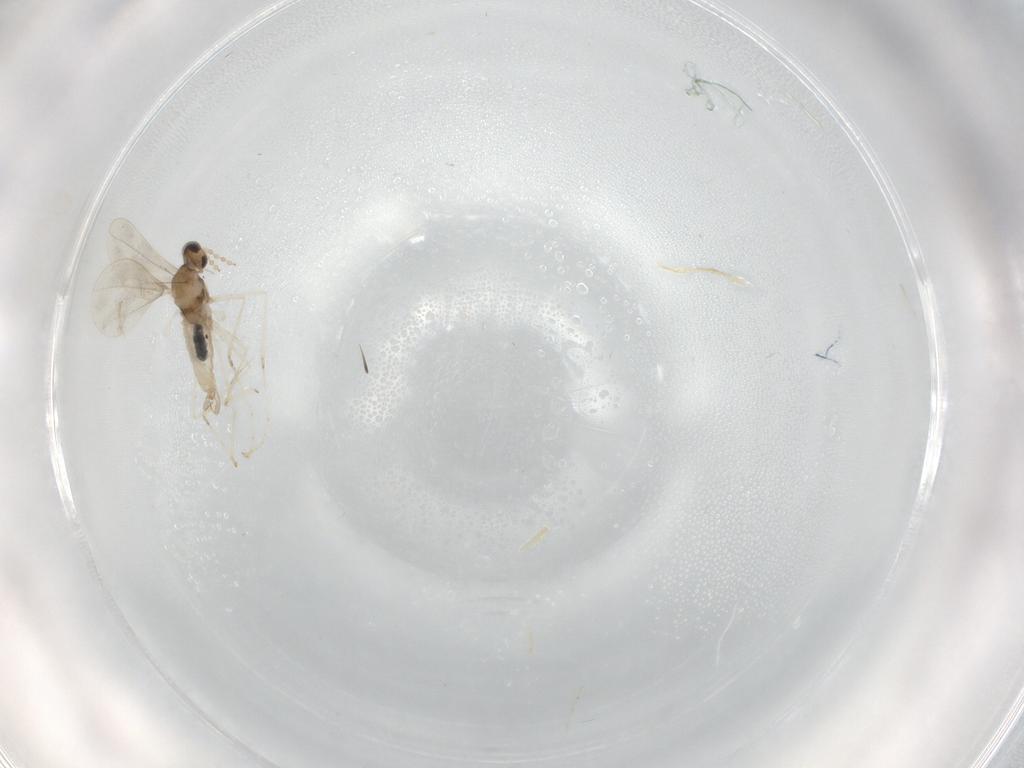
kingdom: Animalia
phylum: Arthropoda
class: Insecta
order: Diptera
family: Cecidomyiidae
